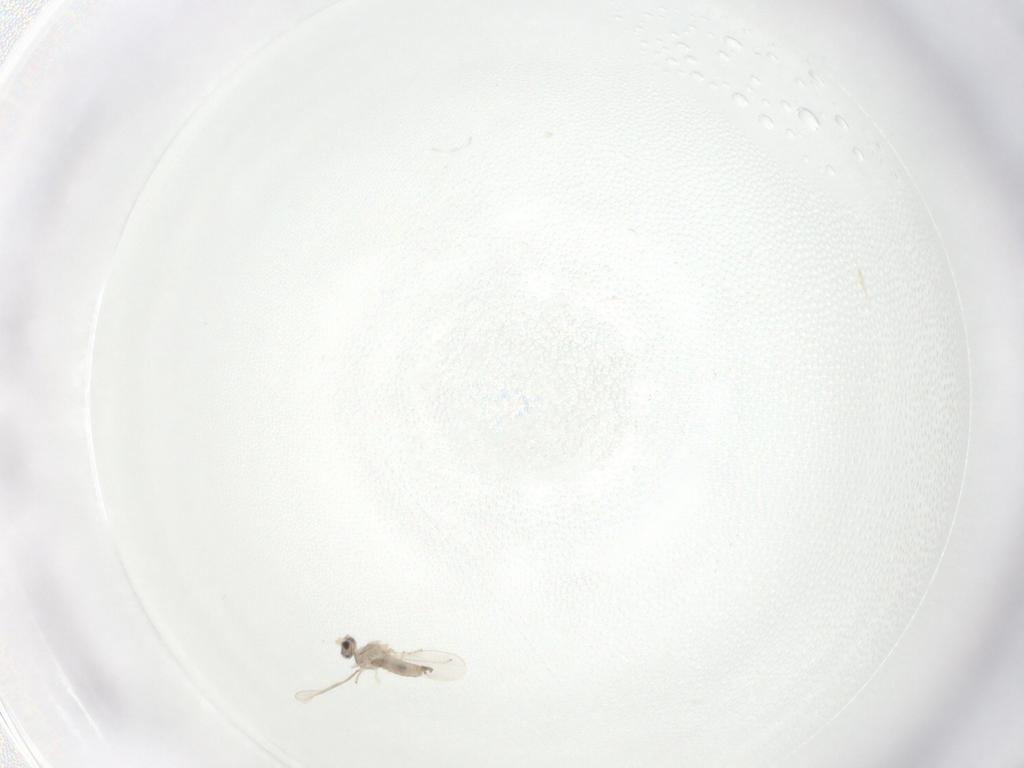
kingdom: Animalia
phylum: Arthropoda
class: Insecta
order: Diptera
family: Cecidomyiidae
